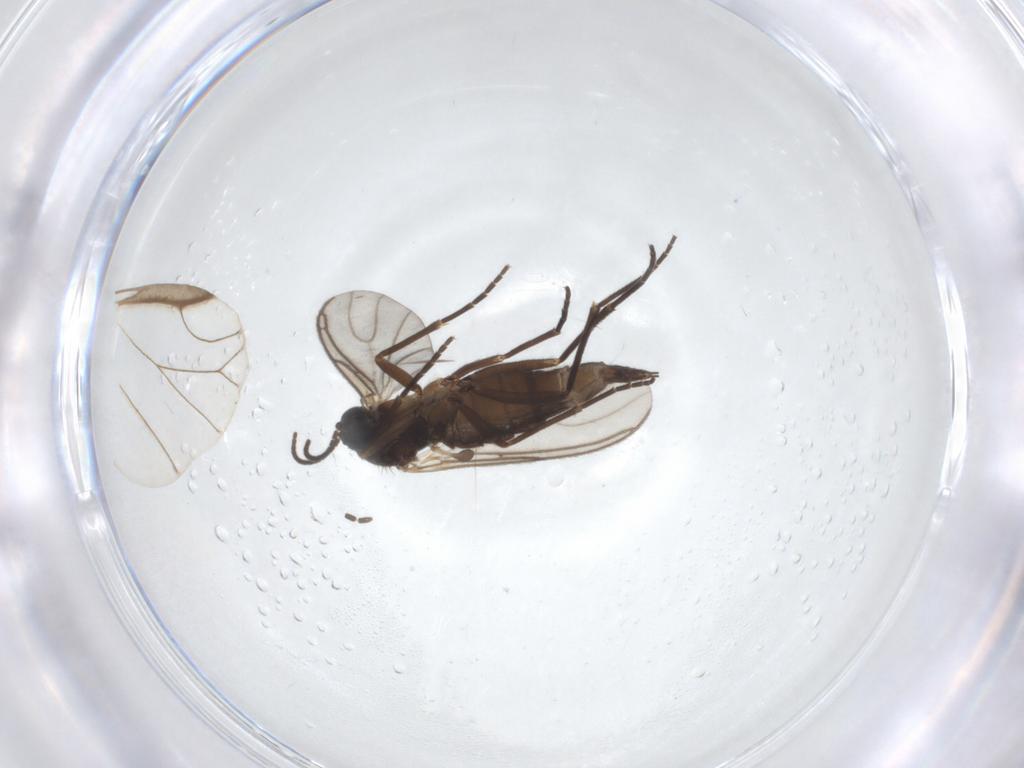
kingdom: Animalia
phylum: Arthropoda
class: Insecta
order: Diptera
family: Sciaridae
